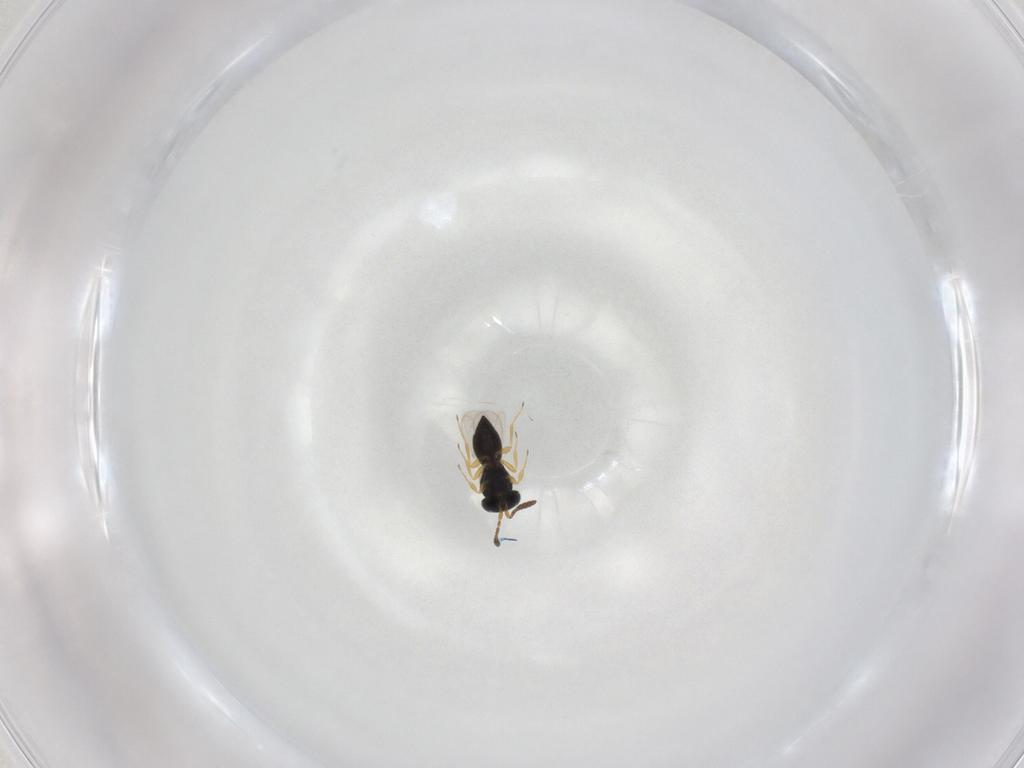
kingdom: Animalia
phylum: Arthropoda
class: Insecta
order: Hymenoptera
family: Scelionidae
